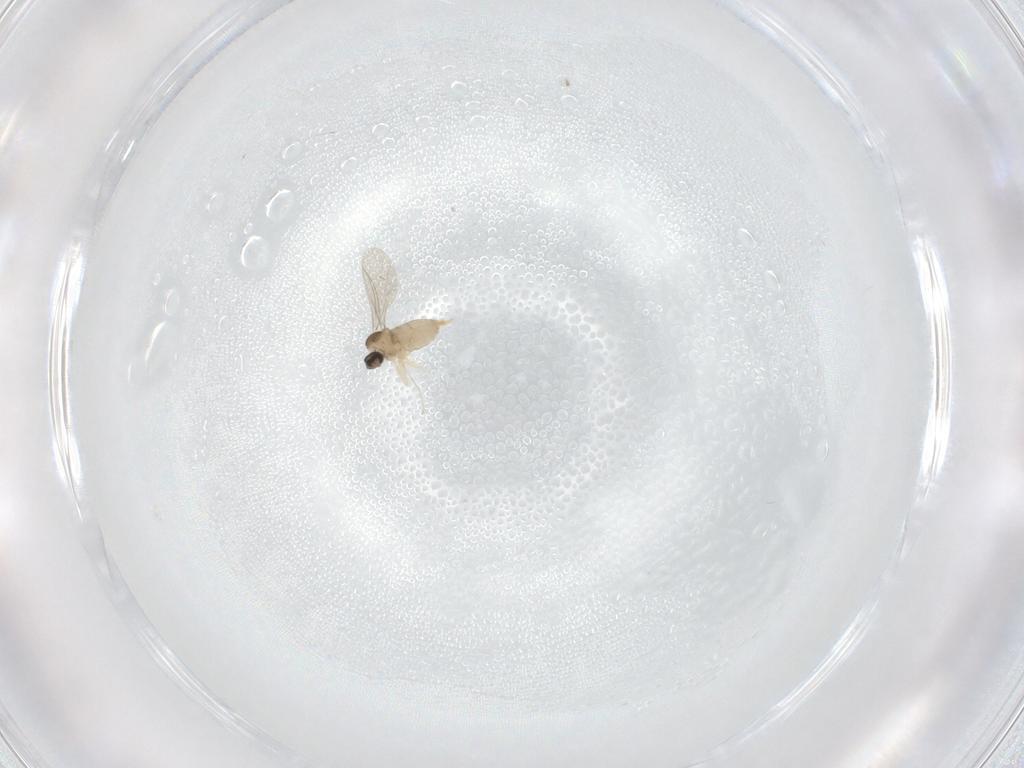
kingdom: Animalia
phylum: Arthropoda
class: Insecta
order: Diptera
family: Cecidomyiidae
